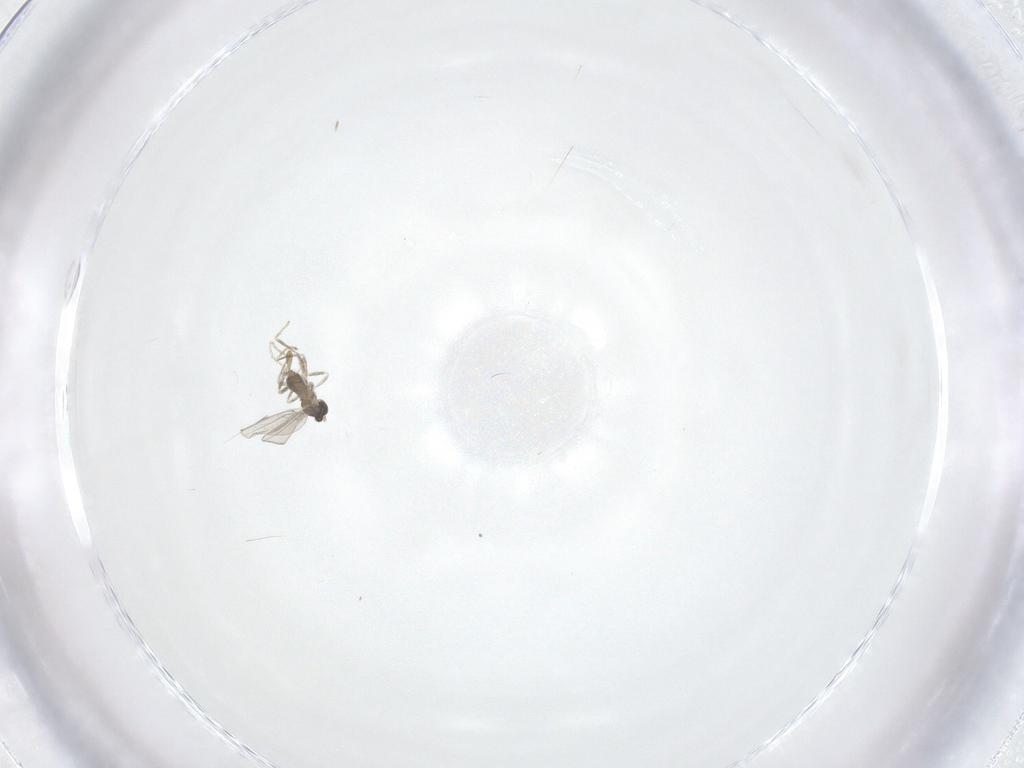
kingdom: Animalia
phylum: Arthropoda
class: Insecta
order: Diptera
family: Cecidomyiidae
